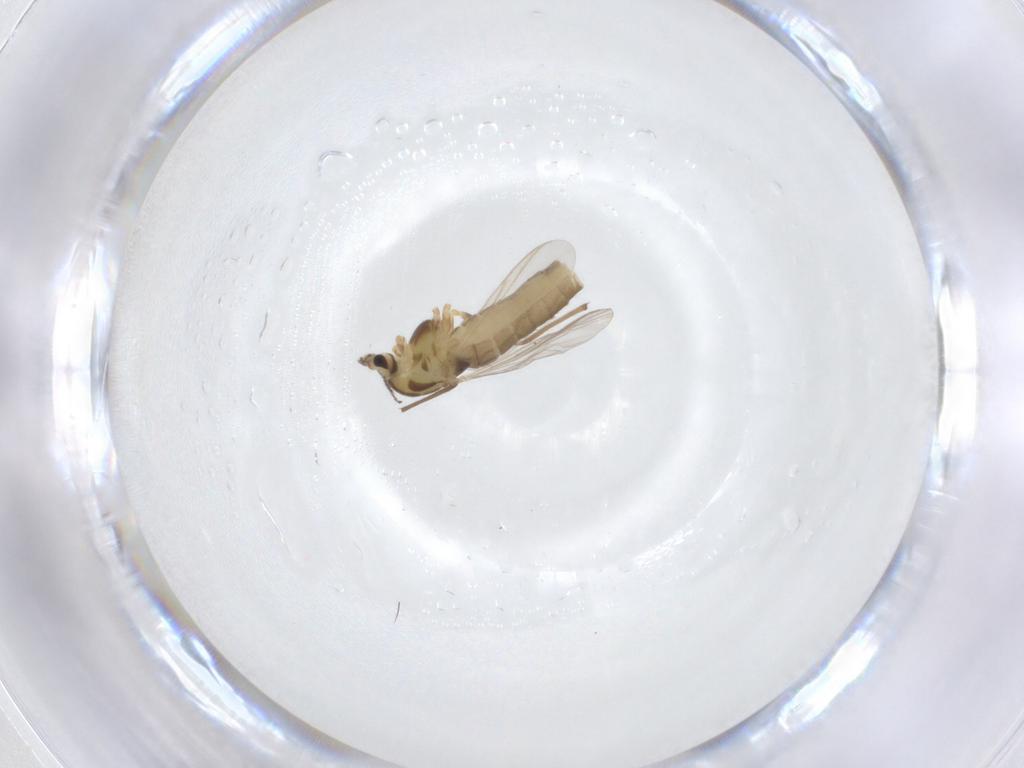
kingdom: Animalia
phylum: Arthropoda
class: Insecta
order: Diptera
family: Chironomidae
